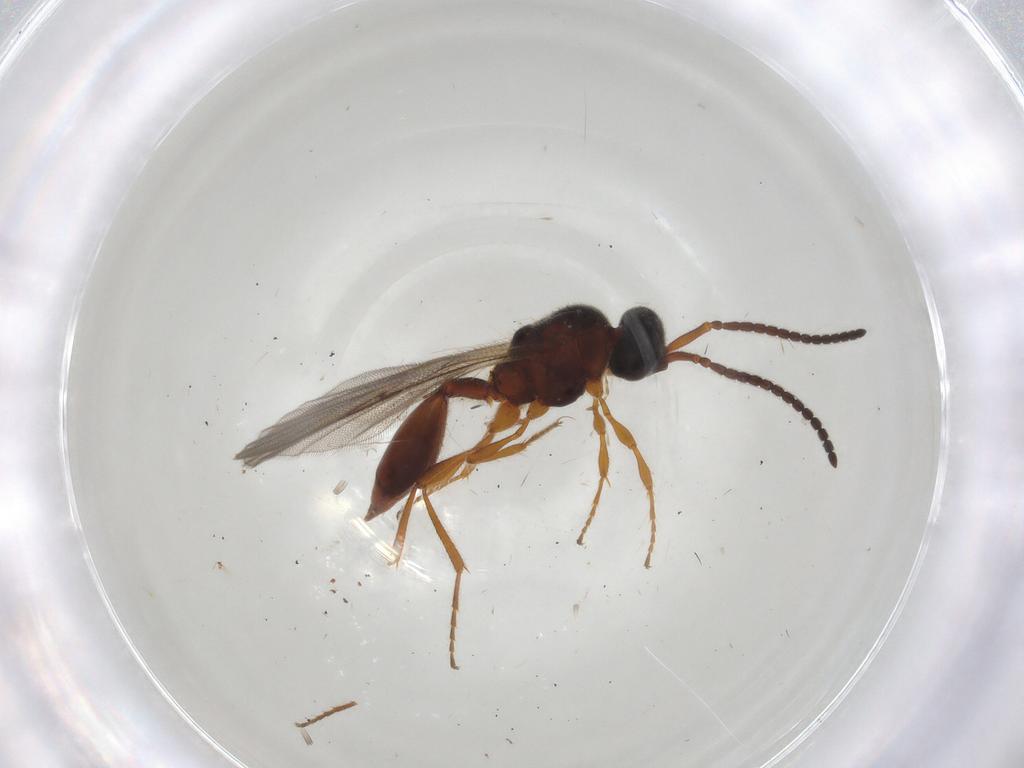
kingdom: Animalia
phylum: Arthropoda
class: Insecta
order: Hymenoptera
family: Diapriidae
